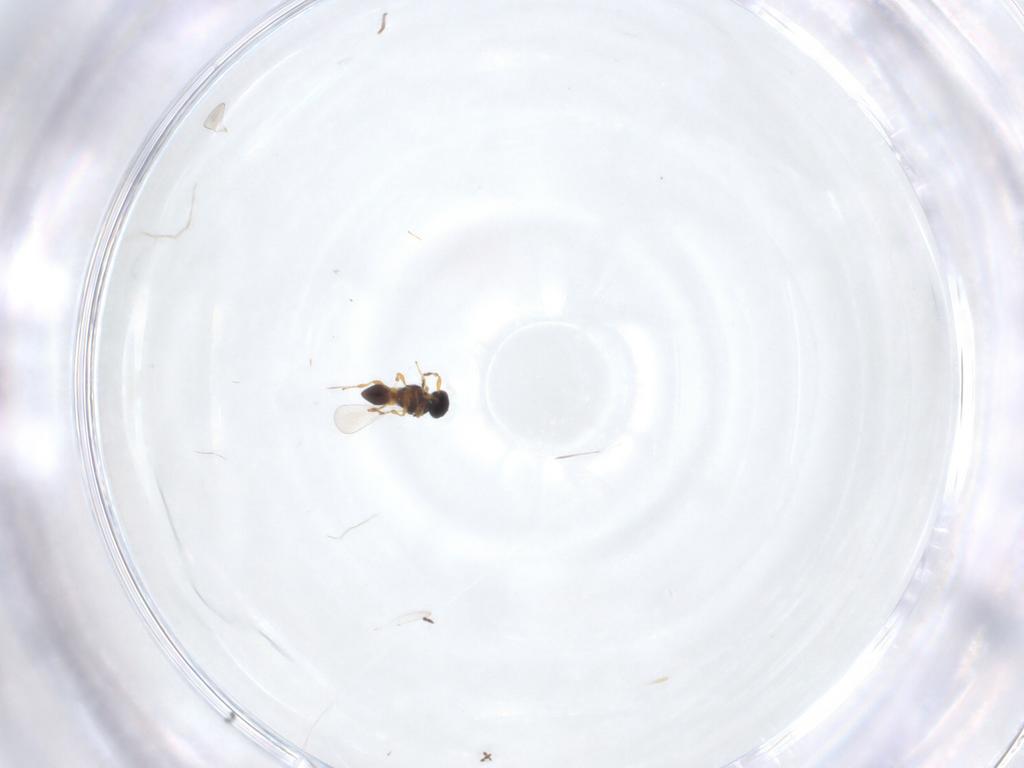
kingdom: Animalia
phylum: Arthropoda
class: Insecta
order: Hymenoptera
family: Platygastridae
